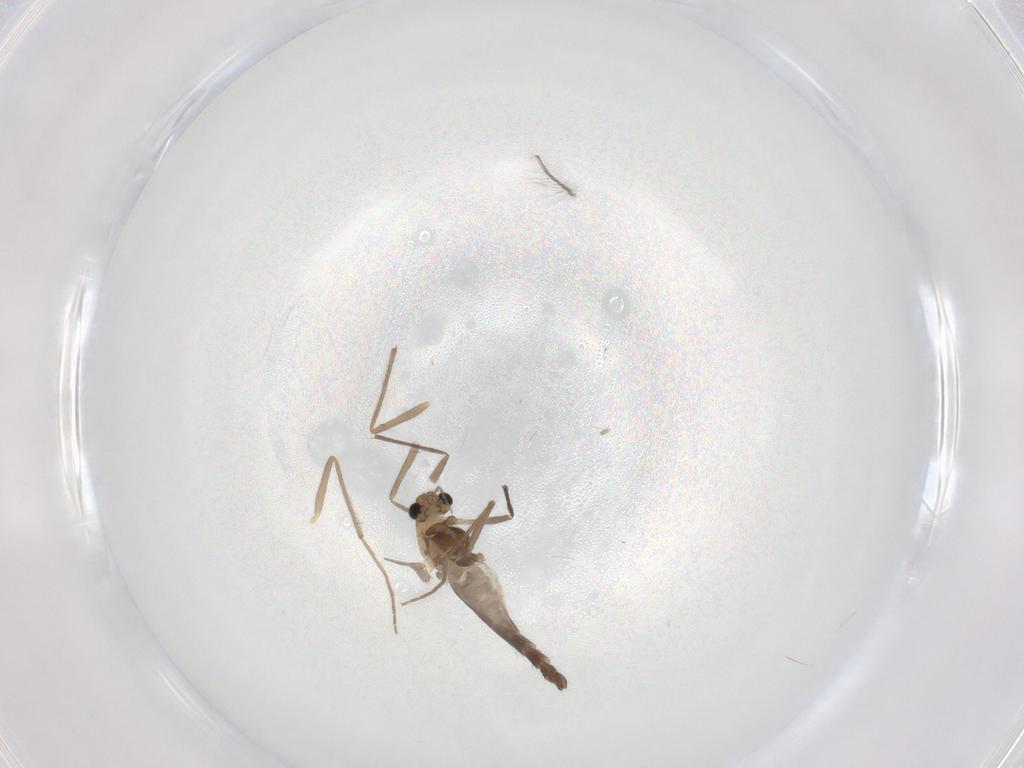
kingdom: Animalia
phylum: Arthropoda
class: Insecta
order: Diptera
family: Chironomidae
